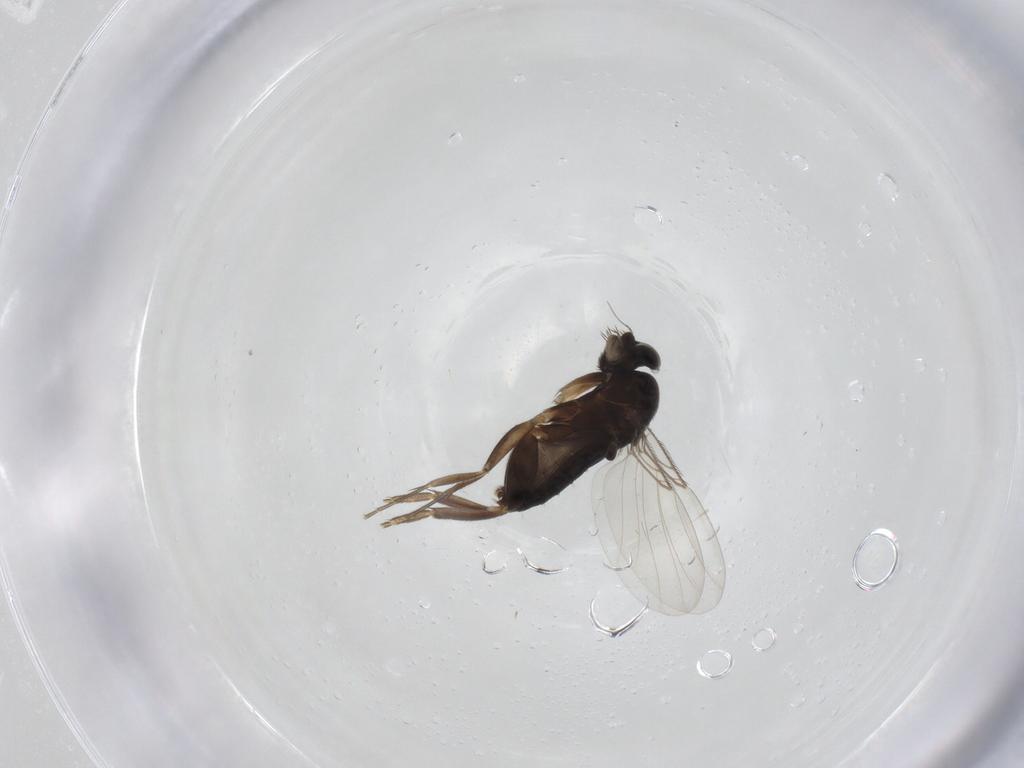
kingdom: Animalia
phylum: Arthropoda
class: Insecta
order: Diptera
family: Phoridae
